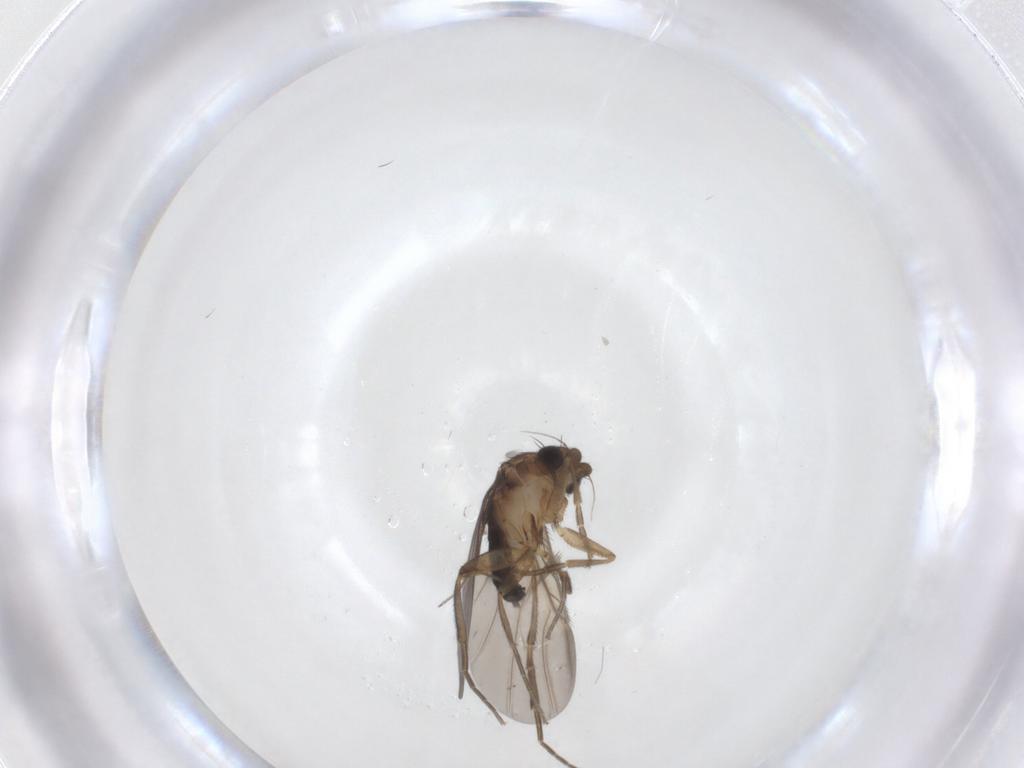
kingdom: Animalia
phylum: Arthropoda
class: Insecta
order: Diptera
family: Phoridae
